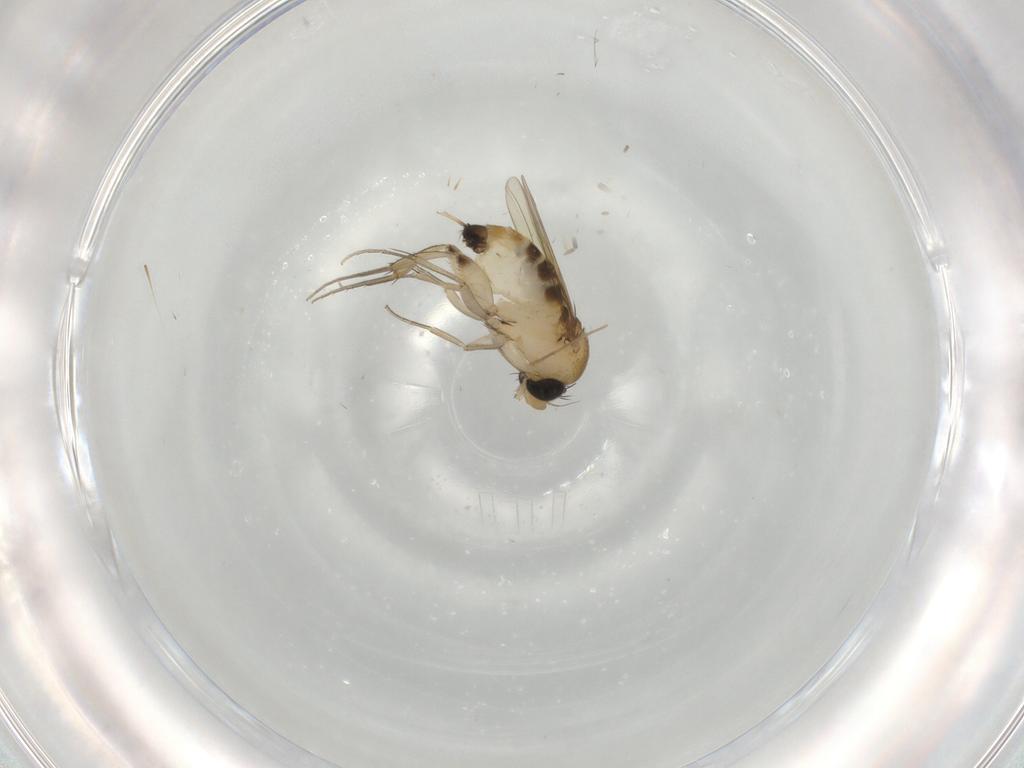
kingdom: Animalia
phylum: Arthropoda
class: Insecta
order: Diptera
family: Phoridae
